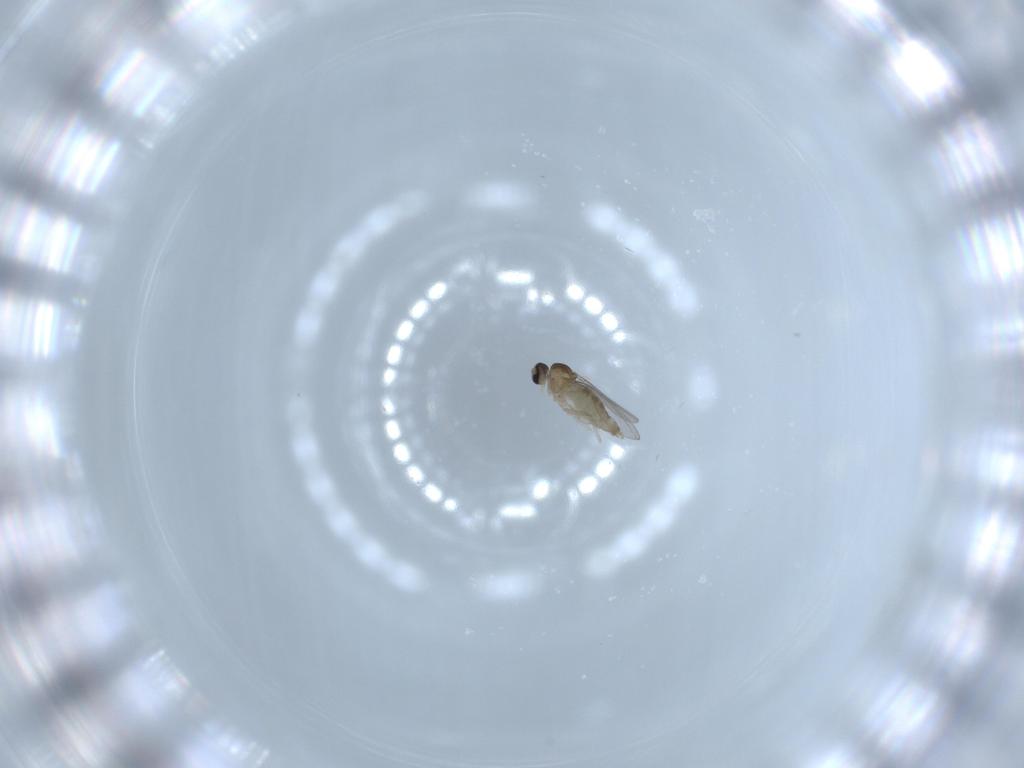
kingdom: Animalia
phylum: Arthropoda
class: Insecta
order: Diptera
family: Cecidomyiidae
